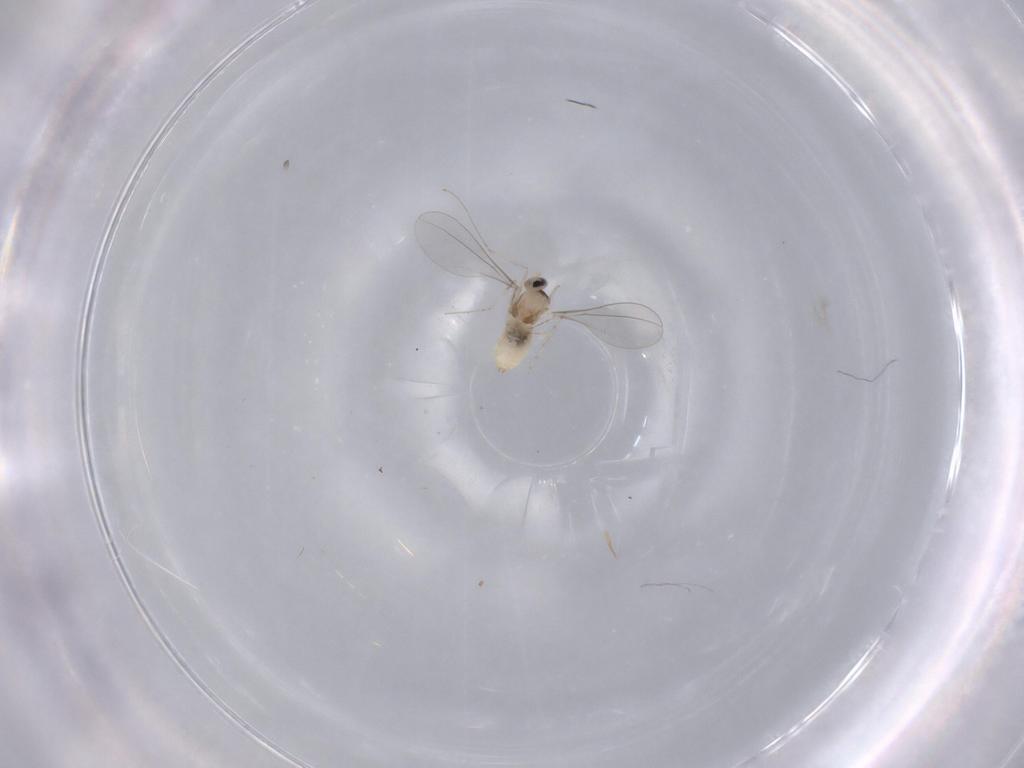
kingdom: Animalia
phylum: Arthropoda
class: Insecta
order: Diptera
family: Cecidomyiidae
